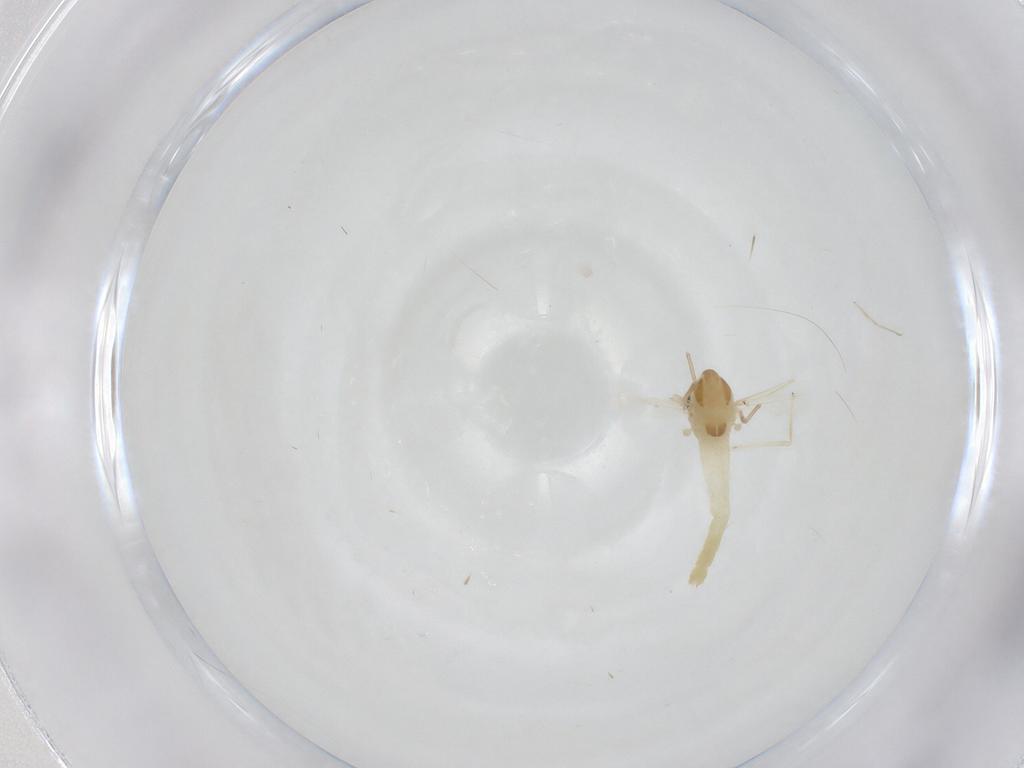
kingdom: Animalia
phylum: Arthropoda
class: Insecta
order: Diptera
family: Chironomidae
